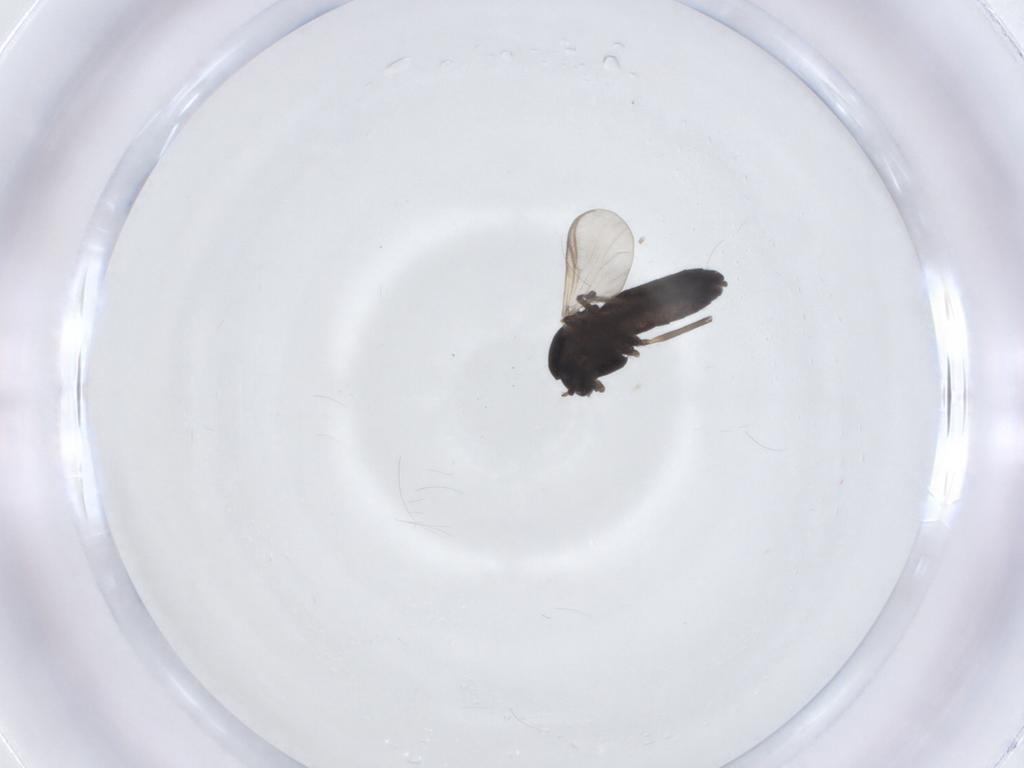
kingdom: Animalia
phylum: Arthropoda
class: Insecta
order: Diptera
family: Chironomidae
